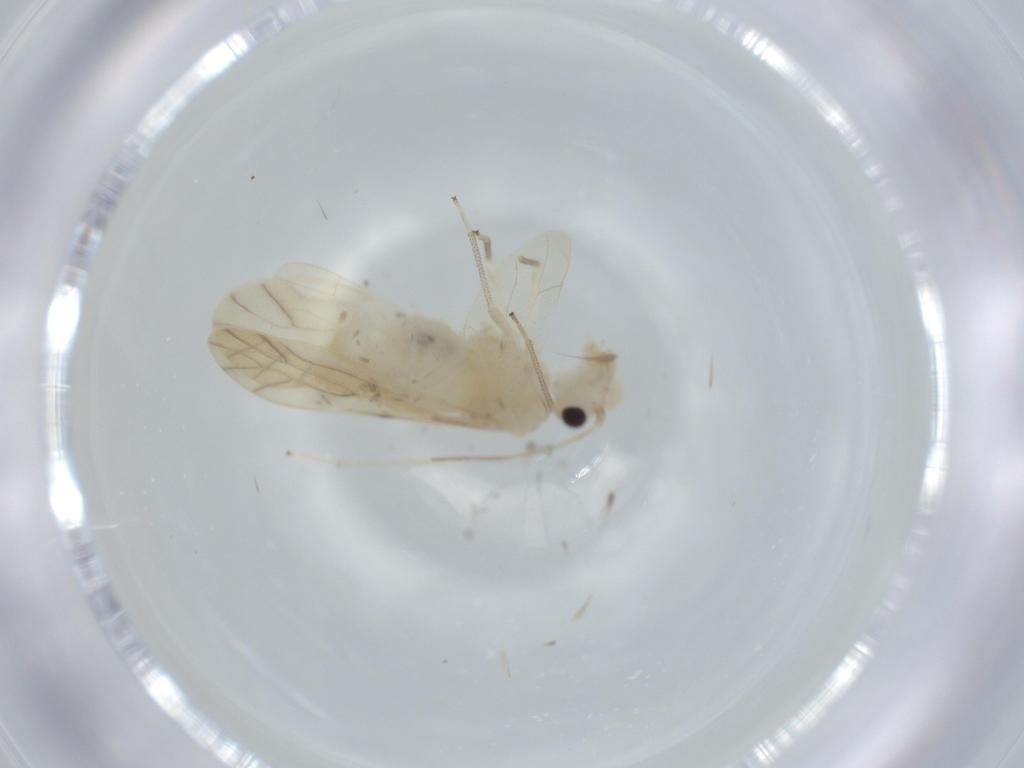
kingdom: Animalia
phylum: Arthropoda
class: Insecta
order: Psocodea
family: Caeciliusidae
